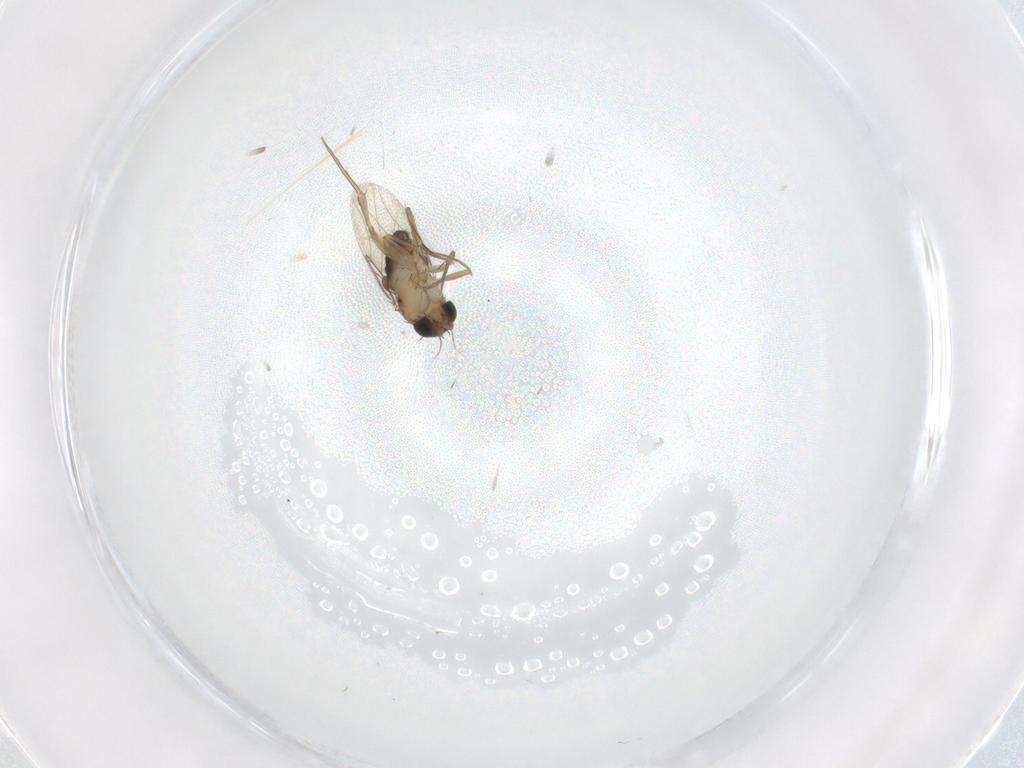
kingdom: Animalia
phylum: Arthropoda
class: Insecta
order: Diptera
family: Phoridae
